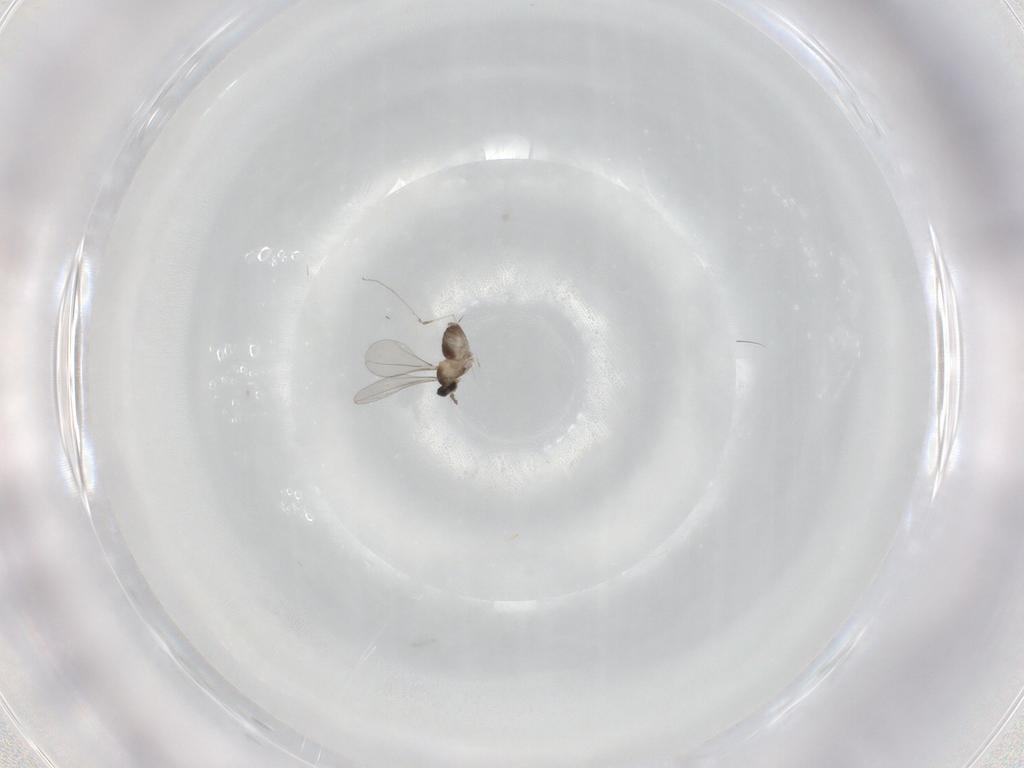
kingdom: Animalia
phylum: Arthropoda
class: Insecta
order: Diptera
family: Cecidomyiidae
